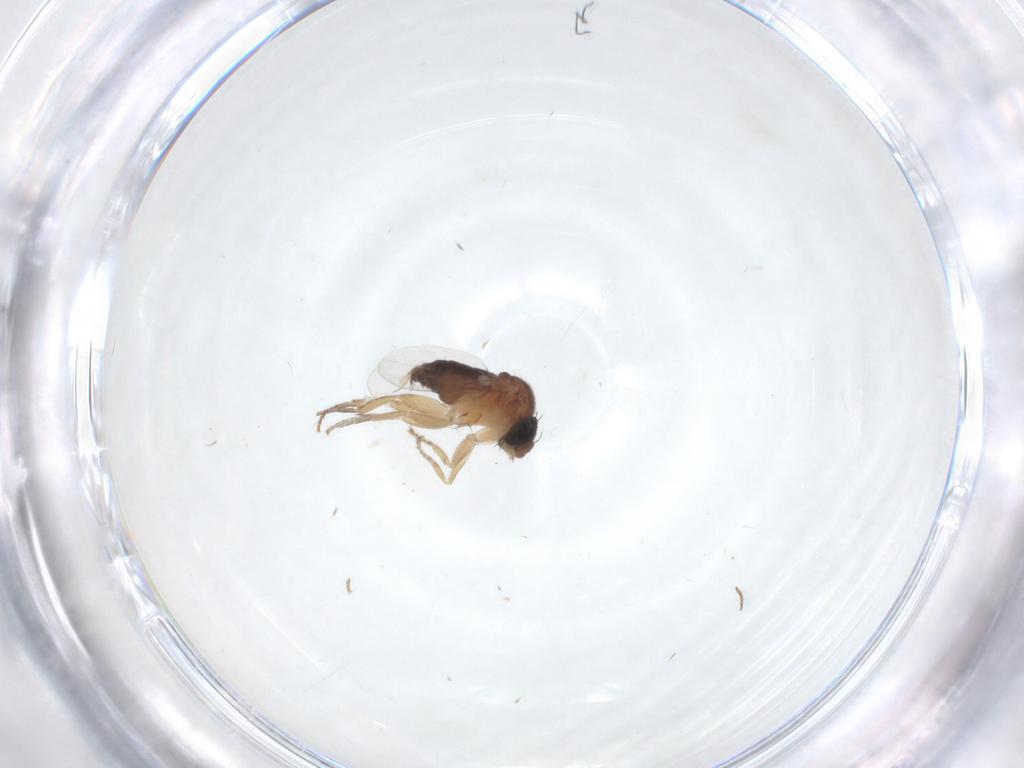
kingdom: Animalia
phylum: Arthropoda
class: Insecta
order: Diptera
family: Phoridae
